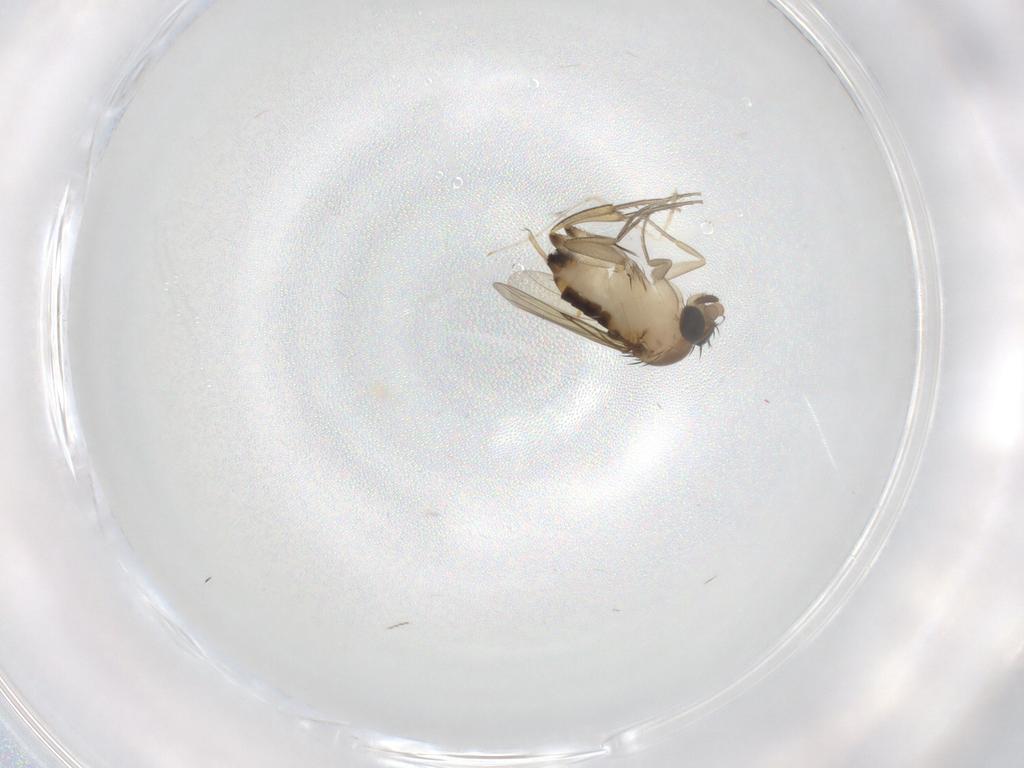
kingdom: Animalia
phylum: Arthropoda
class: Insecta
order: Diptera
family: Phoridae
